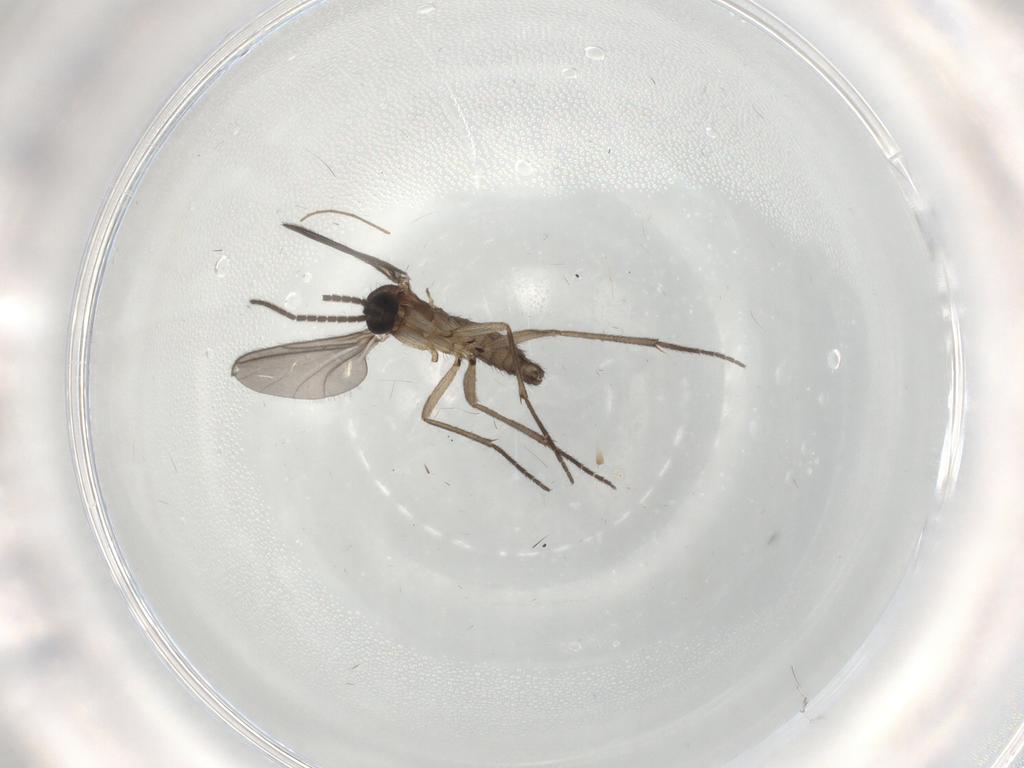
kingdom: Animalia
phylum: Arthropoda
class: Insecta
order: Diptera
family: Sciaridae
